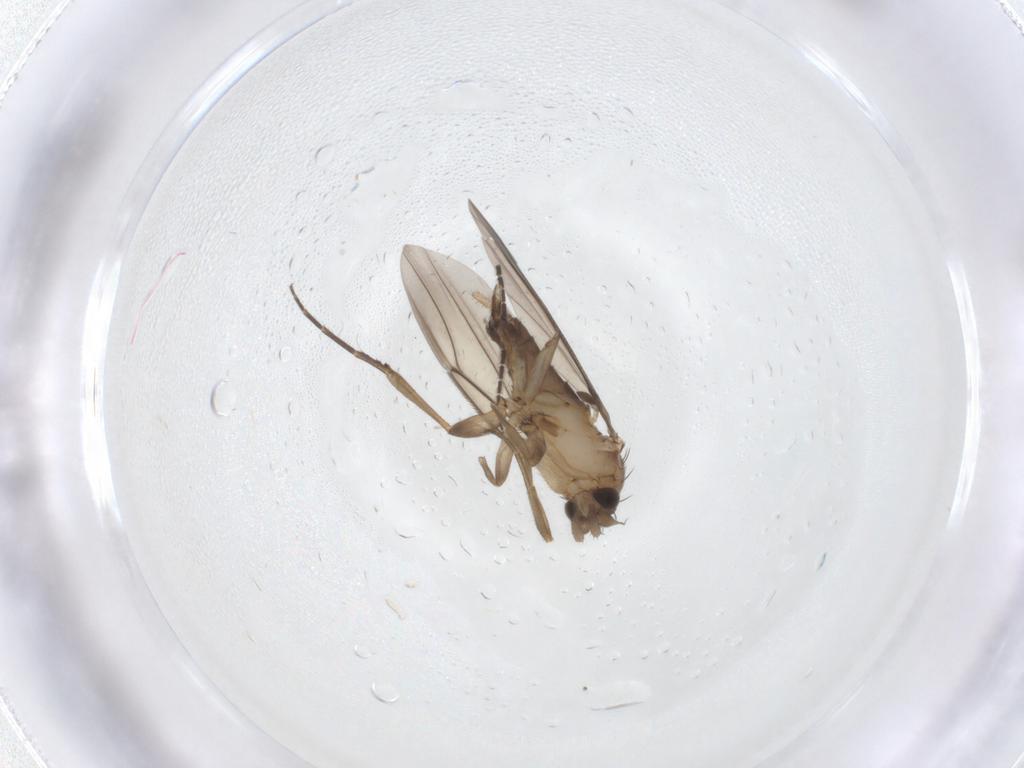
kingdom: Animalia
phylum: Arthropoda
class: Insecta
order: Diptera
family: Sciaridae
